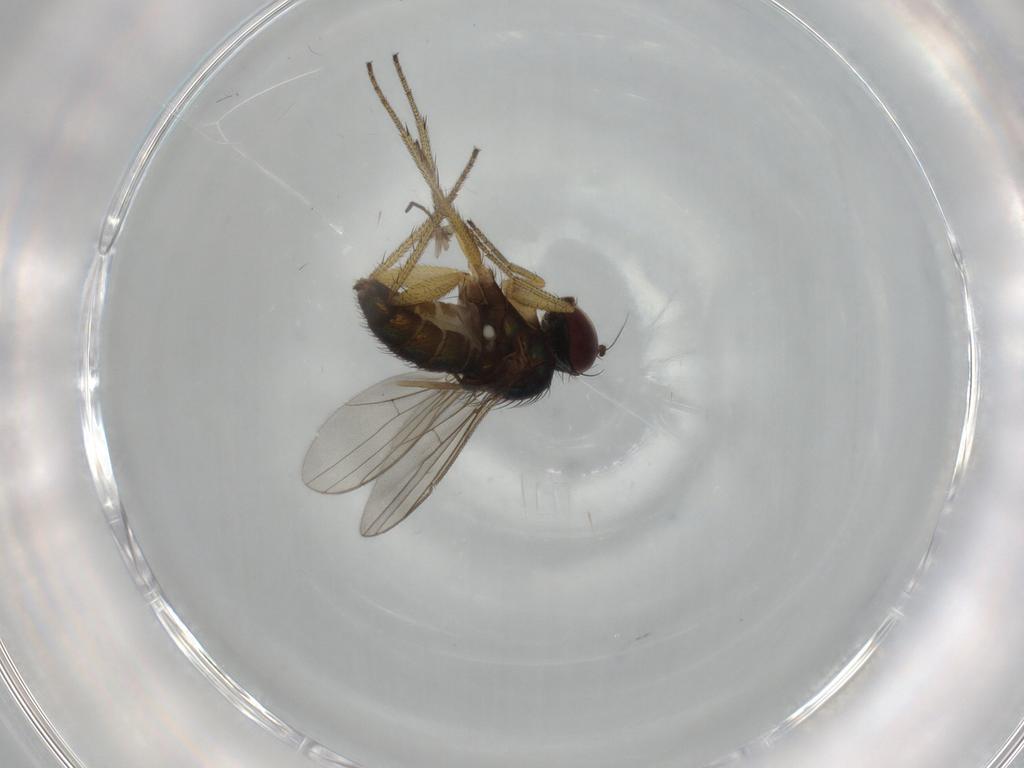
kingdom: Animalia
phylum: Arthropoda
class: Insecta
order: Diptera
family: Dolichopodidae
